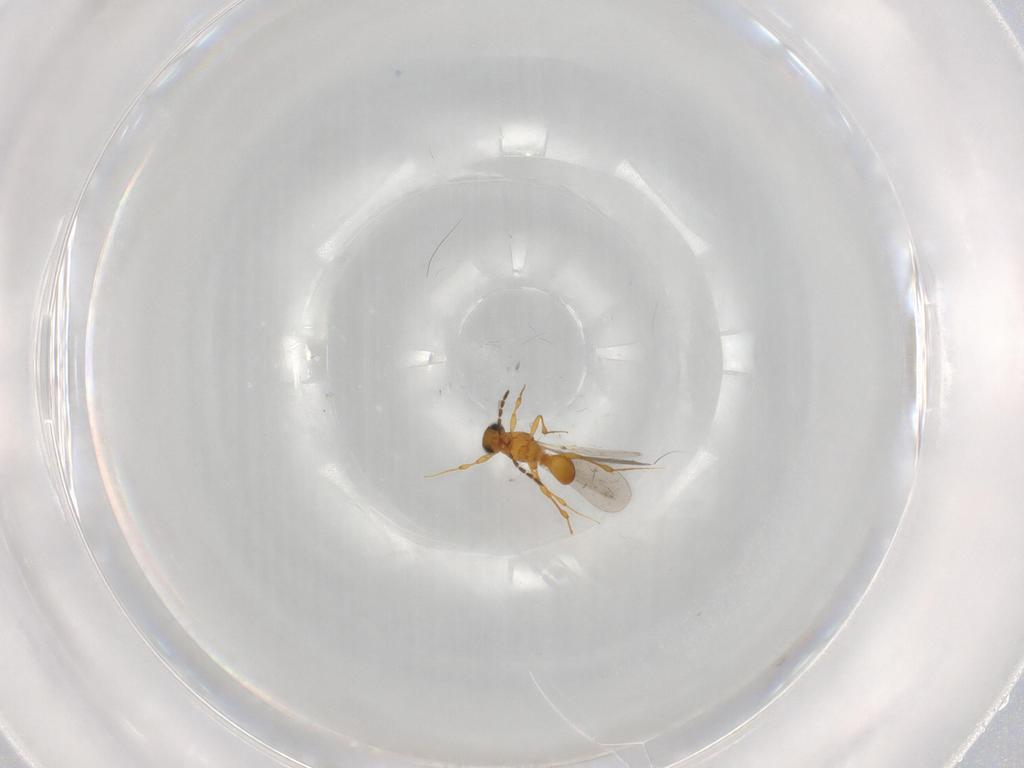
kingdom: Animalia
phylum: Arthropoda
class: Insecta
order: Hymenoptera
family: Platygastridae
